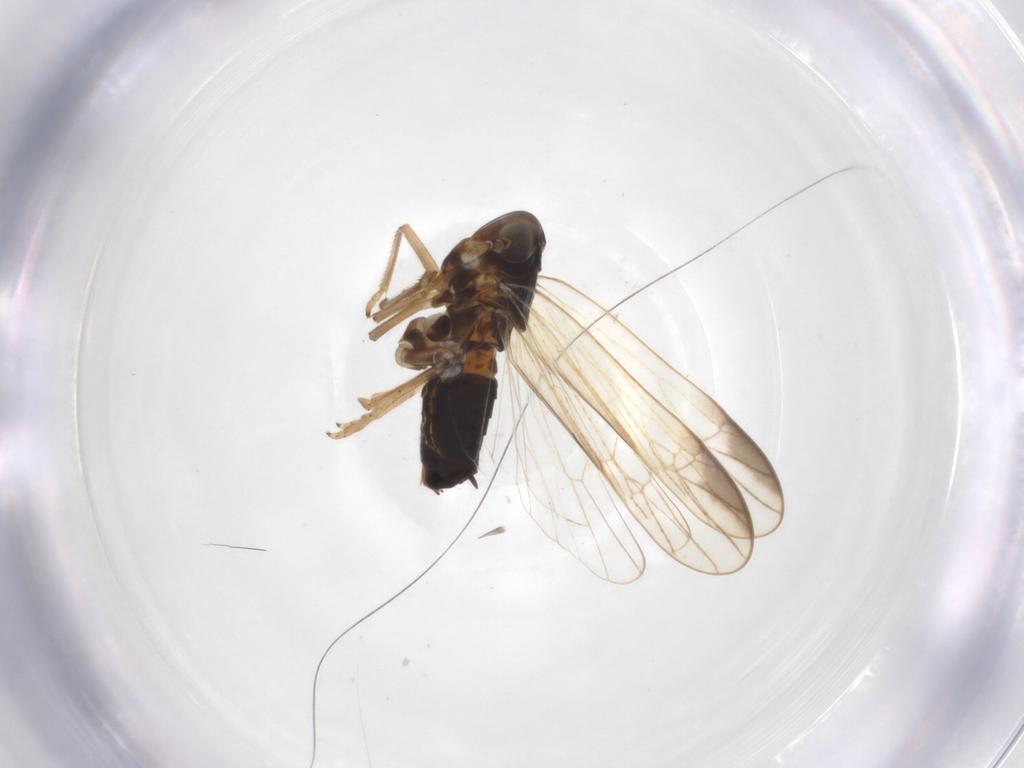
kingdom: Animalia
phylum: Arthropoda
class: Insecta
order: Hemiptera
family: Delphacidae
